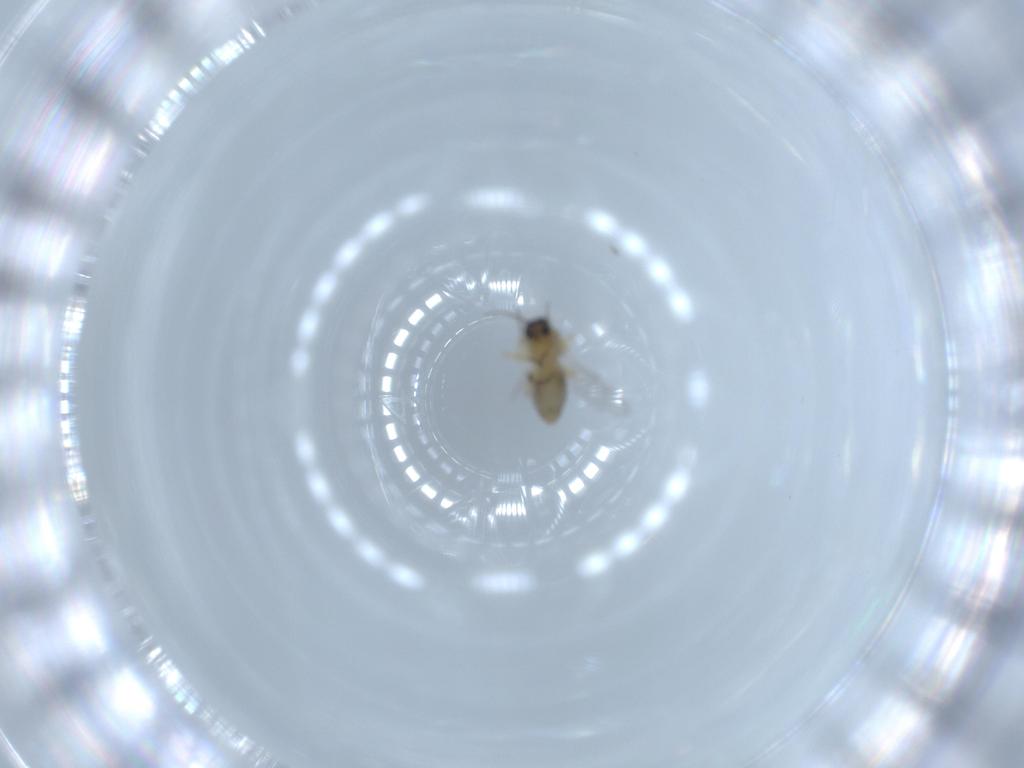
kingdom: Animalia
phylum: Arthropoda
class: Insecta
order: Diptera
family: Ceratopogonidae
